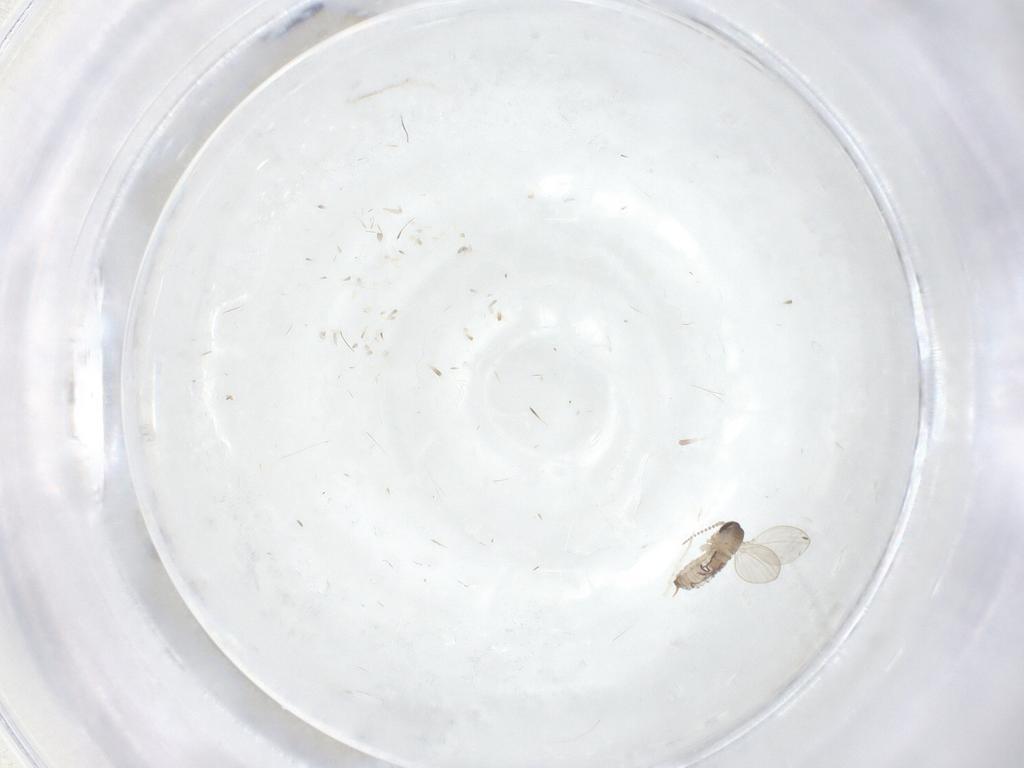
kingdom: Animalia
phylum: Arthropoda
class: Insecta
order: Diptera
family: Psychodidae
